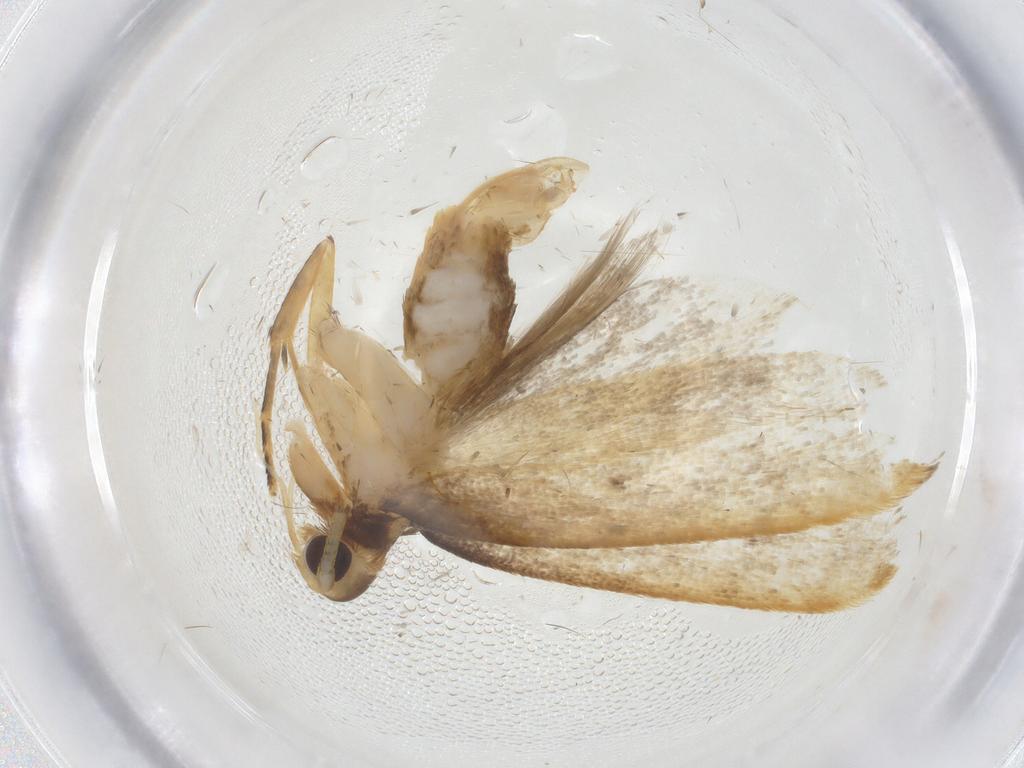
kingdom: Animalia
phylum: Arthropoda
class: Insecta
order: Lepidoptera
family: Lecithoceridae
